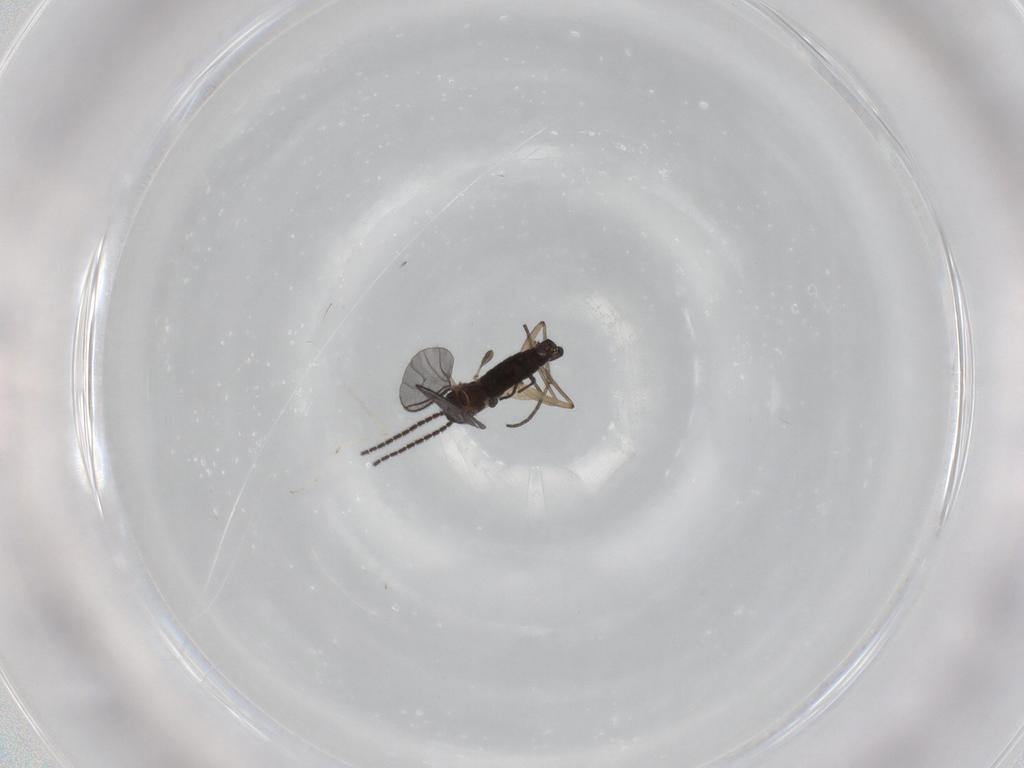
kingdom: Animalia
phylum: Arthropoda
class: Insecta
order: Diptera
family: Sciaridae
